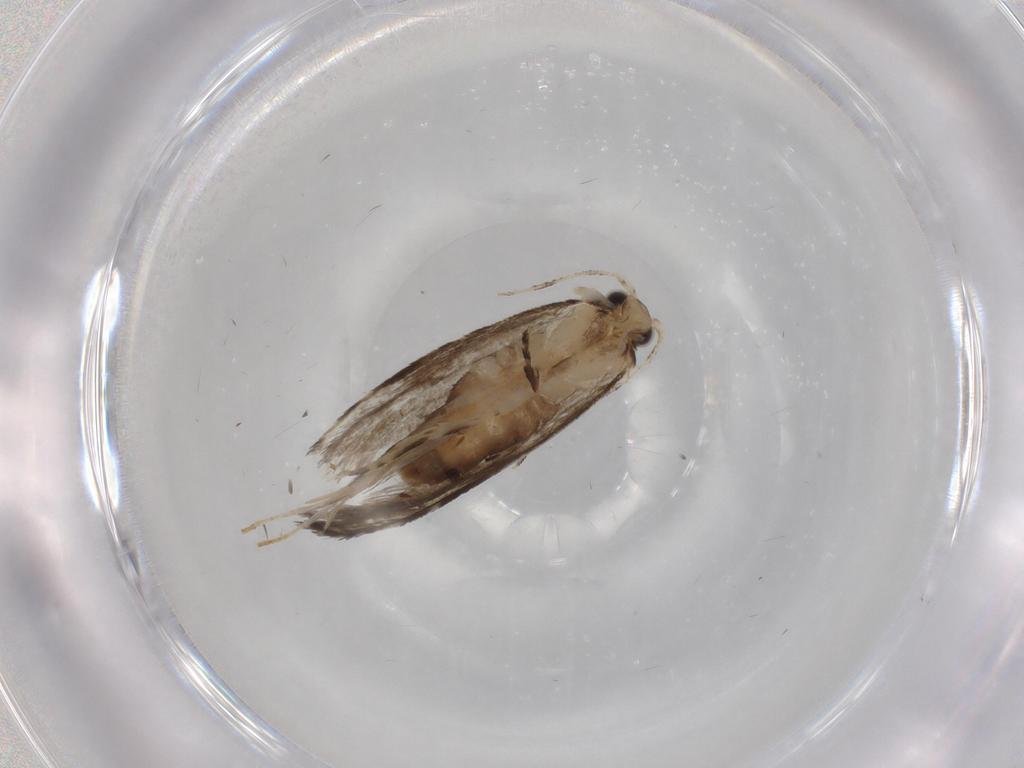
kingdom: Animalia
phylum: Arthropoda
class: Insecta
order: Lepidoptera
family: Tineidae
